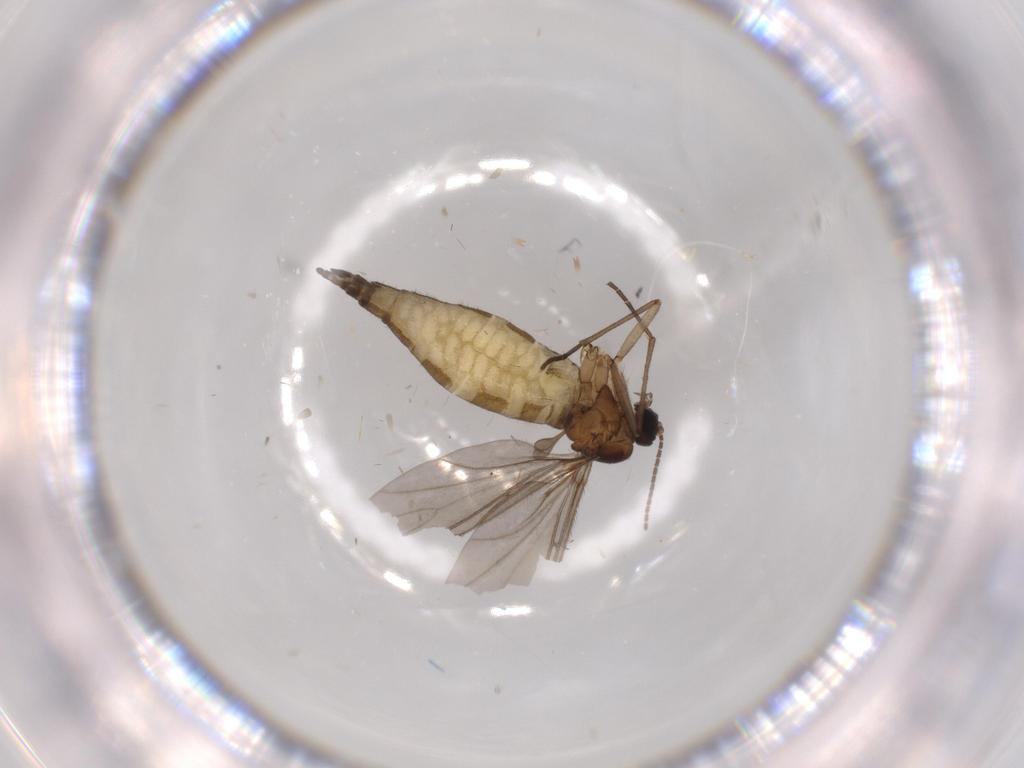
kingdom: Animalia
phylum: Arthropoda
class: Insecta
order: Diptera
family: Sciaridae
